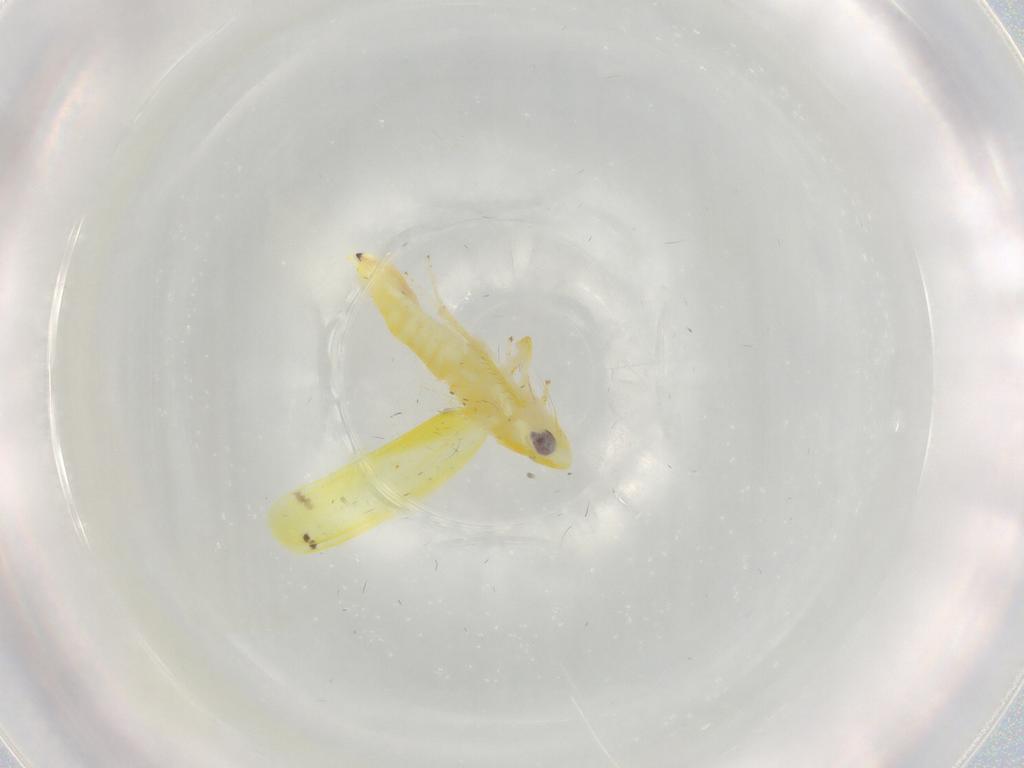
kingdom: Animalia
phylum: Arthropoda
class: Insecta
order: Hemiptera
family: Cicadellidae
